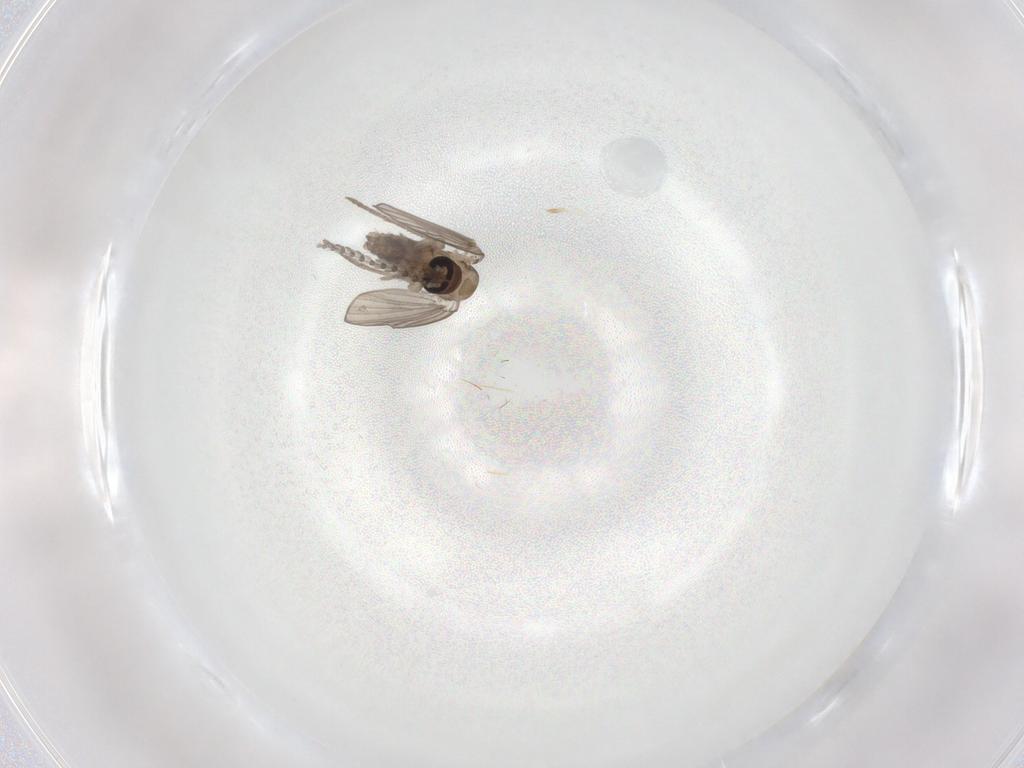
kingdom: Animalia
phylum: Arthropoda
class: Insecta
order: Diptera
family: Psychodidae
